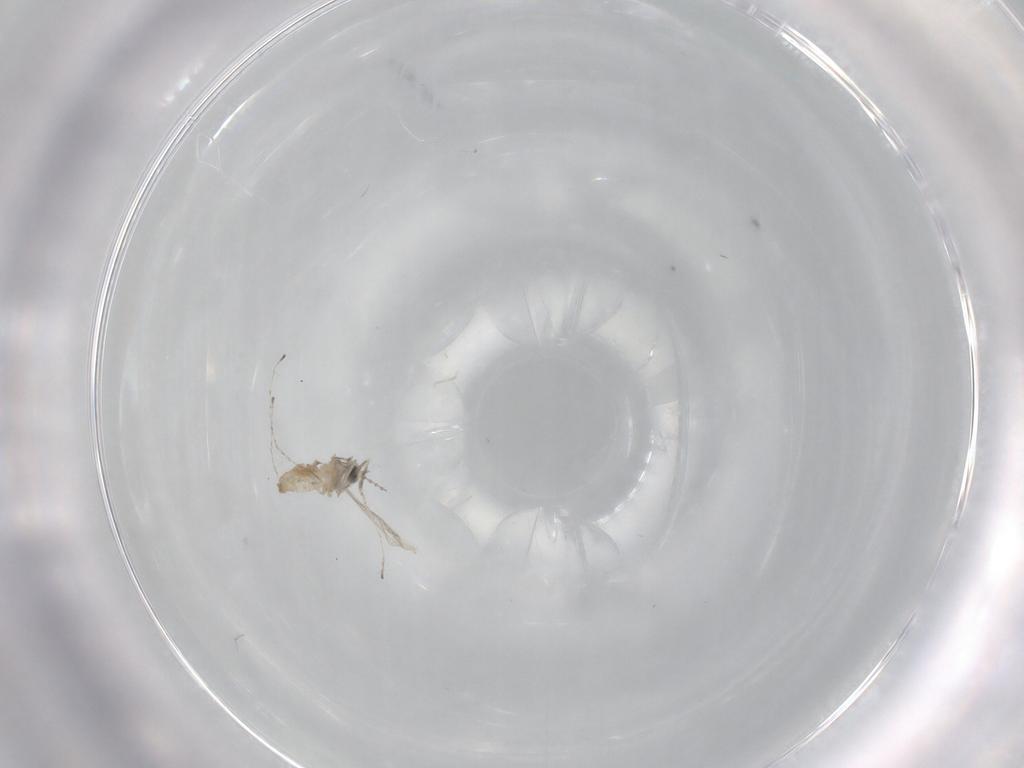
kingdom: Animalia
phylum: Arthropoda
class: Insecta
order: Diptera
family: Cecidomyiidae
